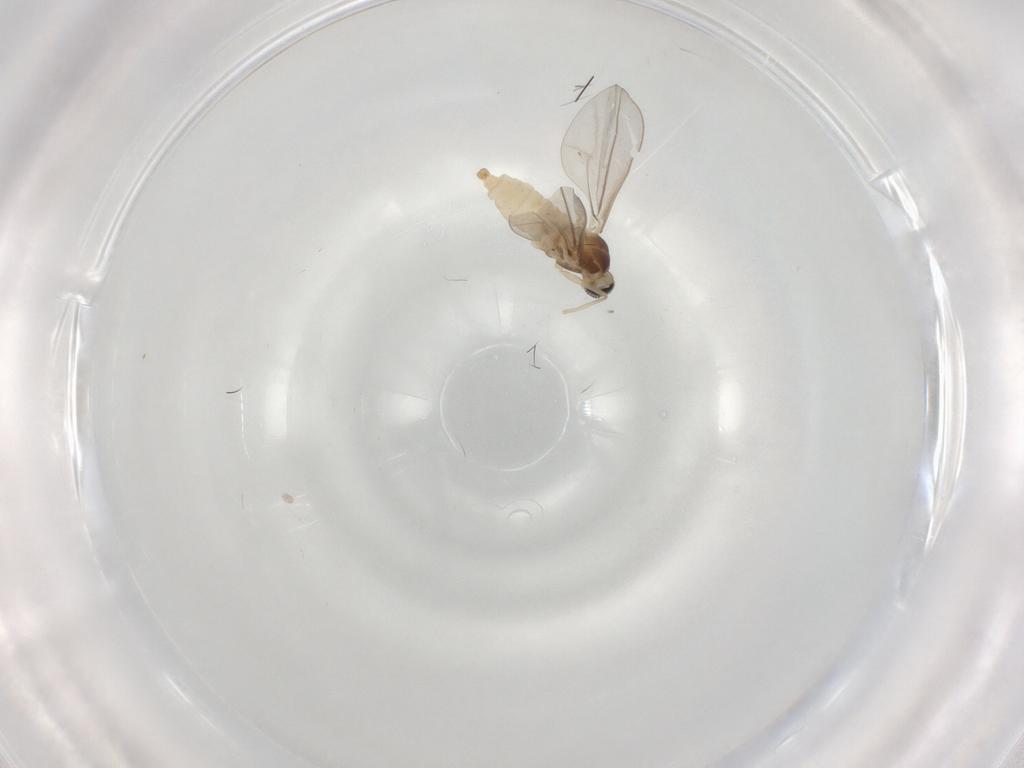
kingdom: Animalia
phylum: Arthropoda
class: Insecta
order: Diptera
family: Cecidomyiidae
